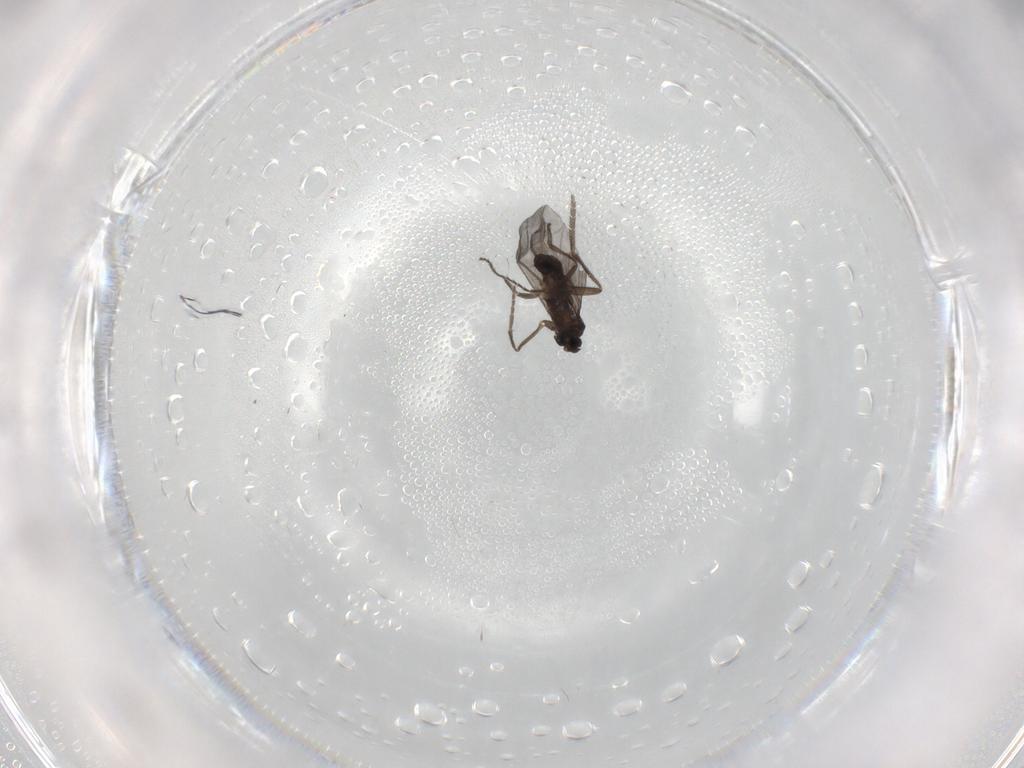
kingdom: Animalia
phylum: Arthropoda
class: Insecta
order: Diptera
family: Phoridae
